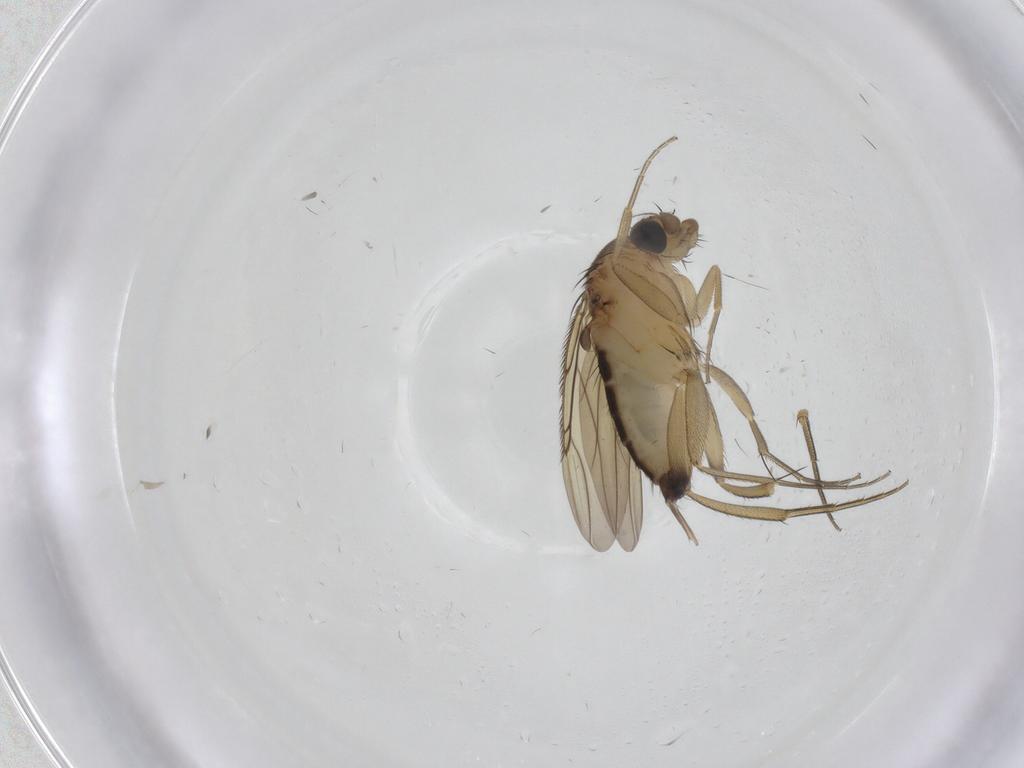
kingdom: Animalia
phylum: Arthropoda
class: Insecta
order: Diptera
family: Phoridae
